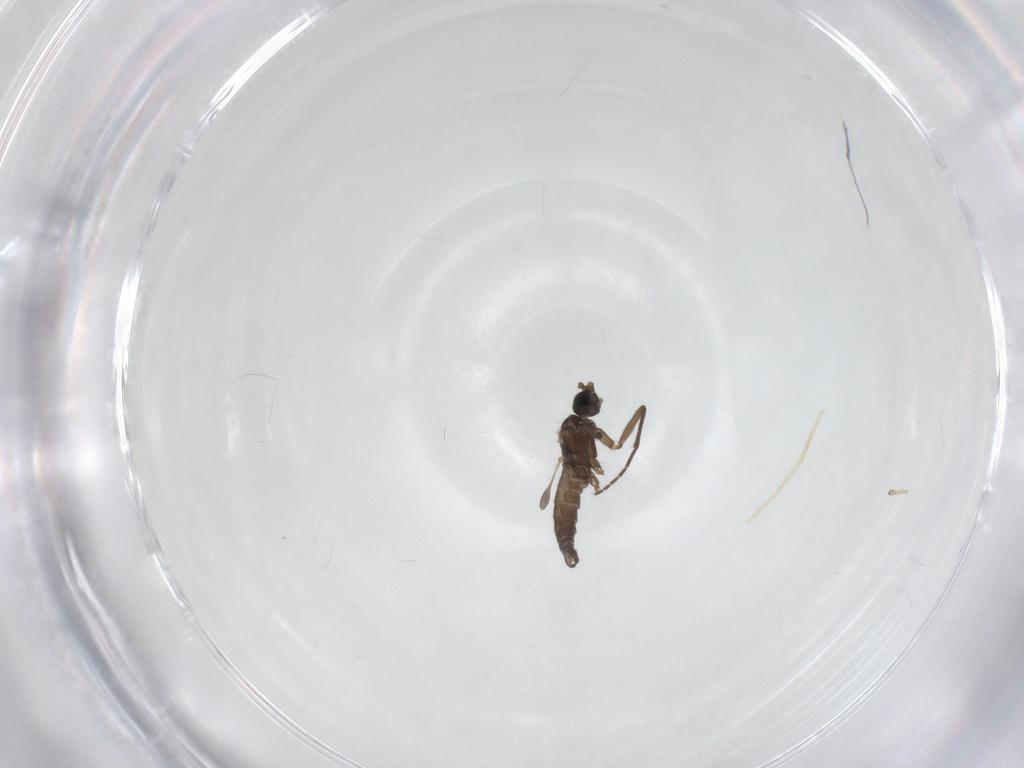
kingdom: Animalia
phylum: Arthropoda
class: Insecta
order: Diptera
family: Sciaridae
